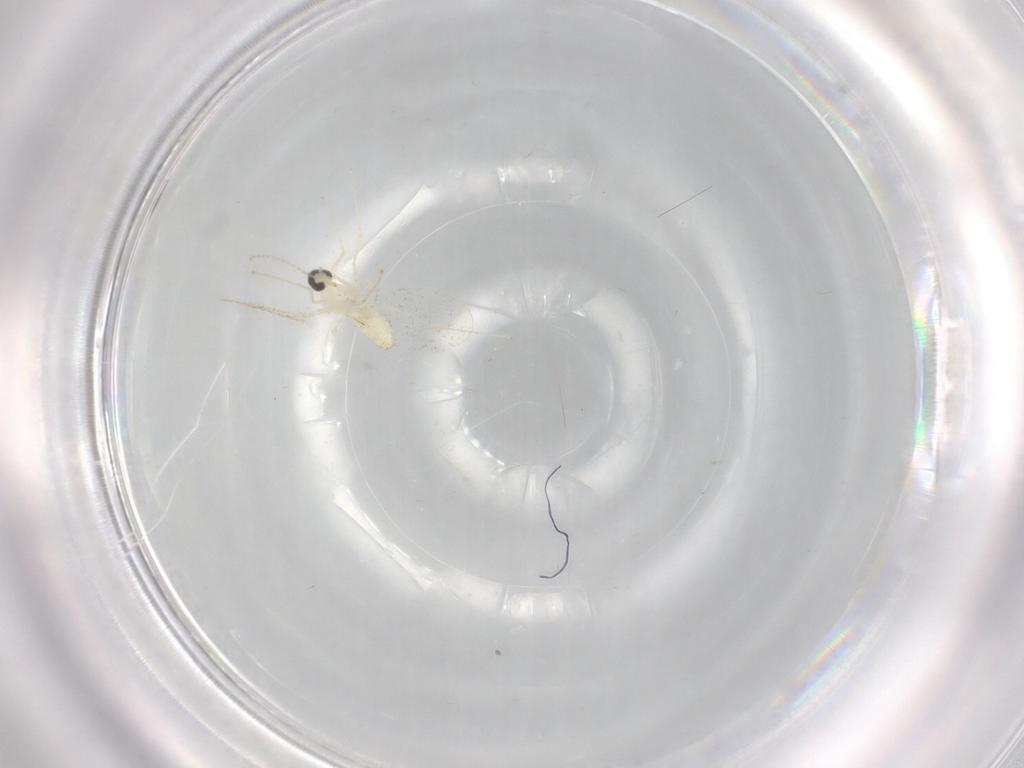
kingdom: Animalia
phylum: Arthropoda
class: Insecta
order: Diptera
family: Cecidomyiidae
